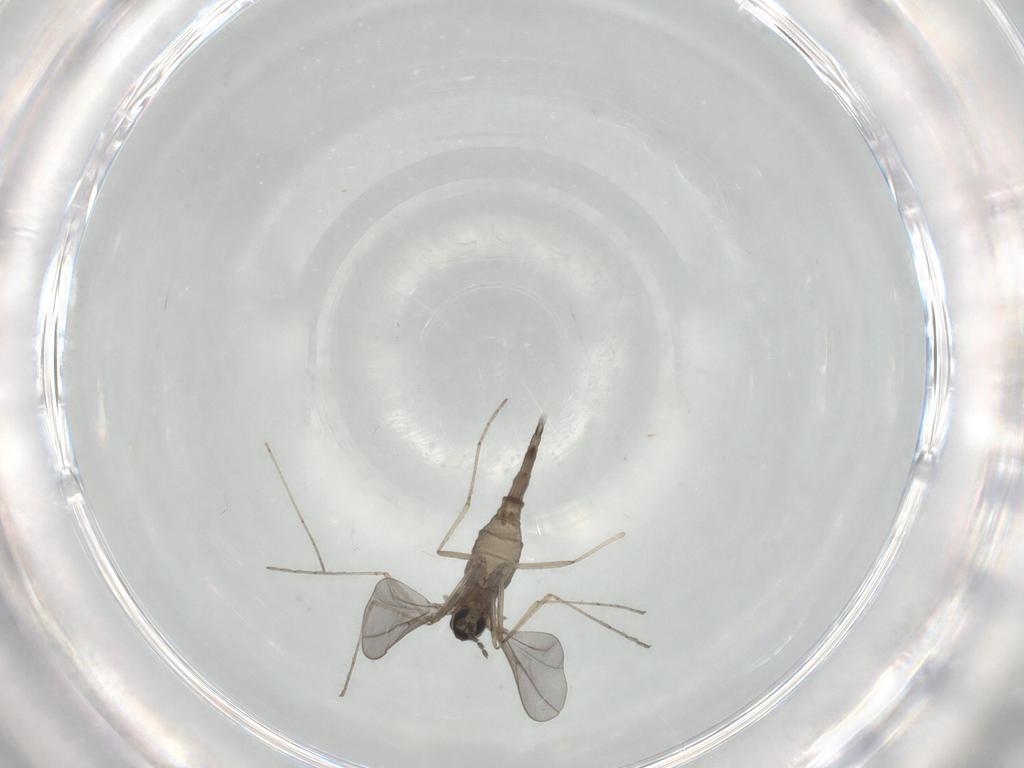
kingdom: Animalia
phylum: Arthropoda
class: Insecta
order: Diptera
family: Cecidomyiidae
